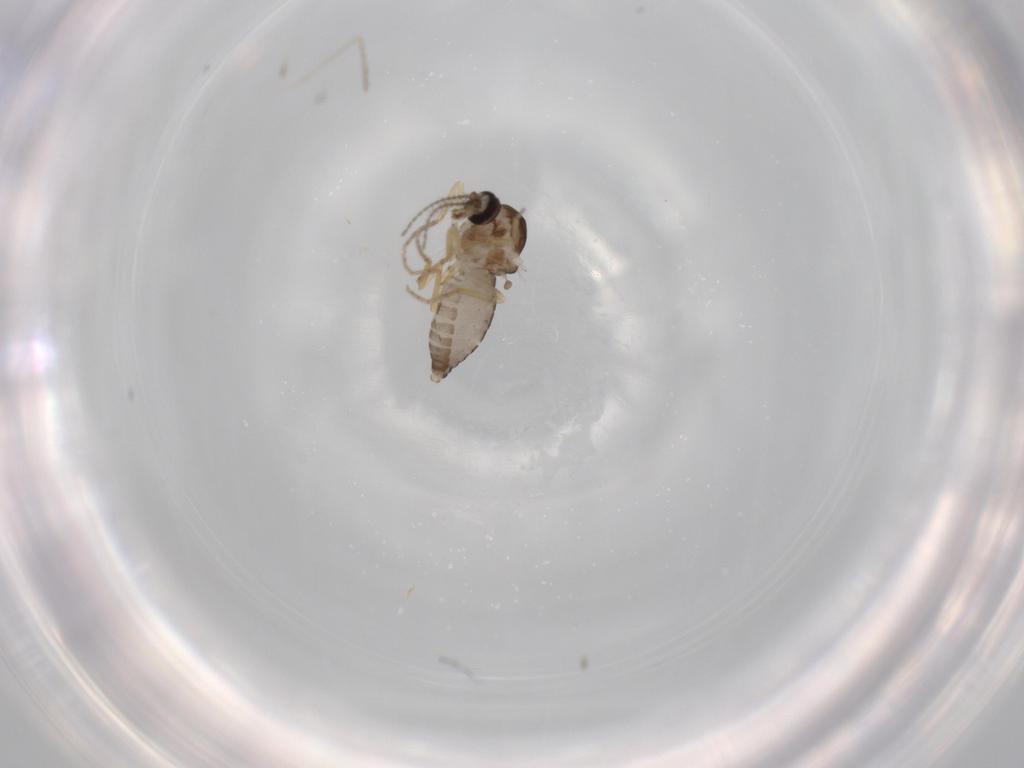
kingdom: Animalia
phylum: Arthropoda
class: Insecta
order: Diptera
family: Ceratopogonidae
